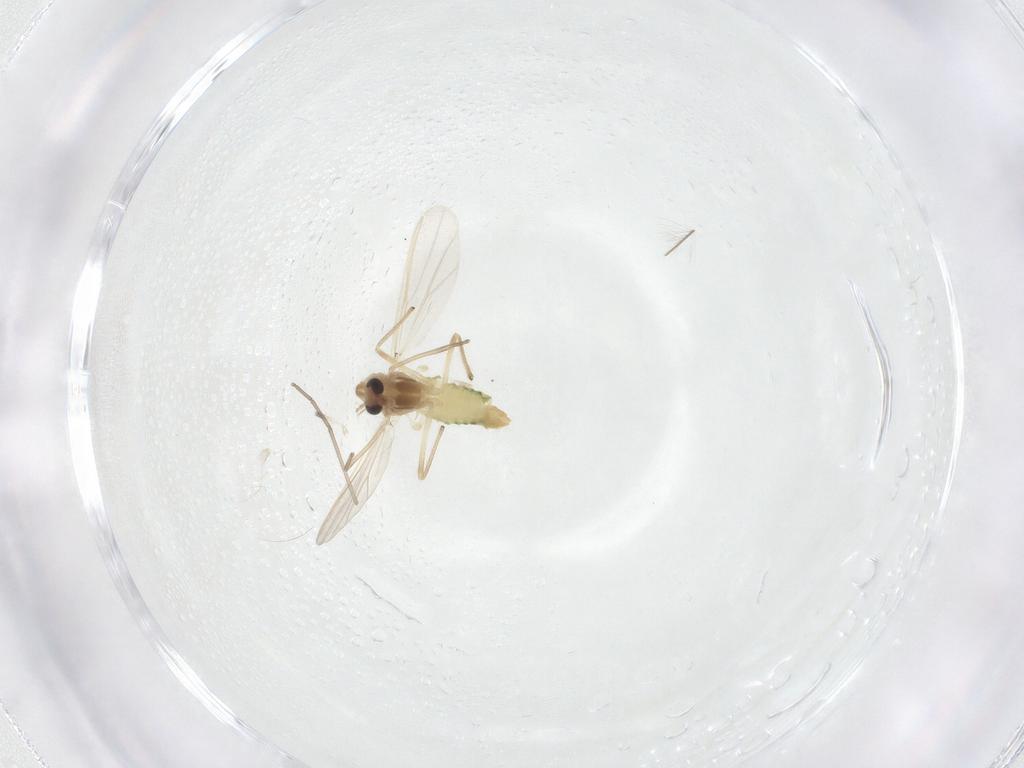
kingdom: Animalia
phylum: Arthropoda
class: Insecta
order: Diptera
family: Chironomidae
